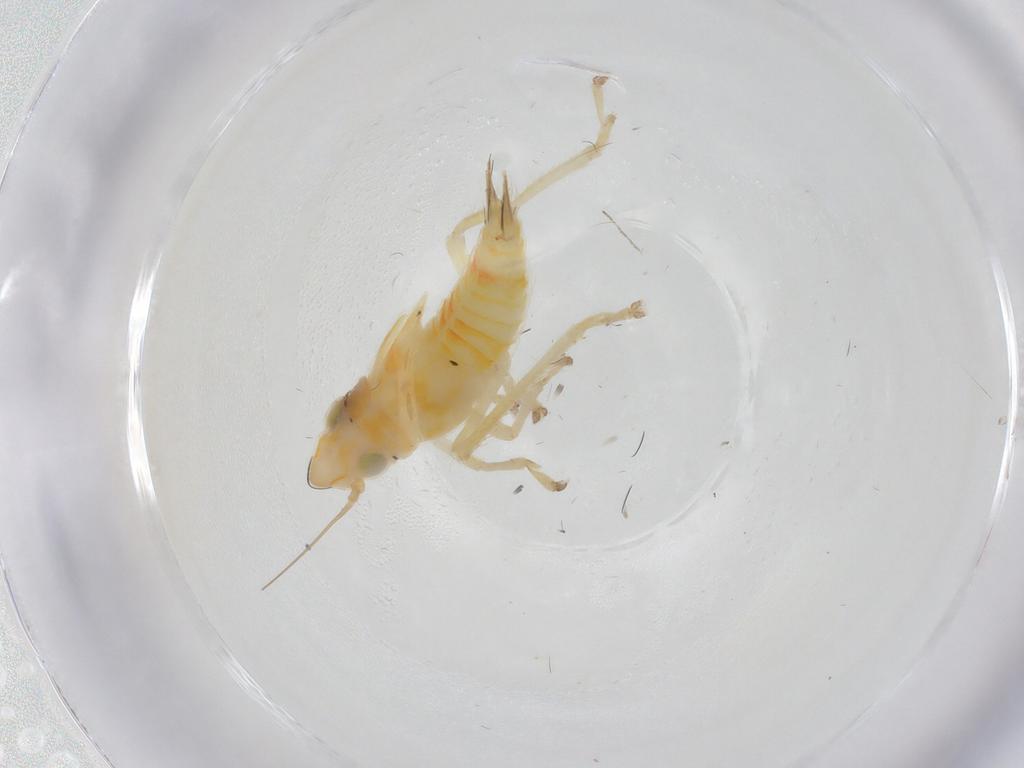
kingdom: Animalia
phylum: Arthropoda
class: Insecta
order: Hemiptera
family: Cicadellidae
